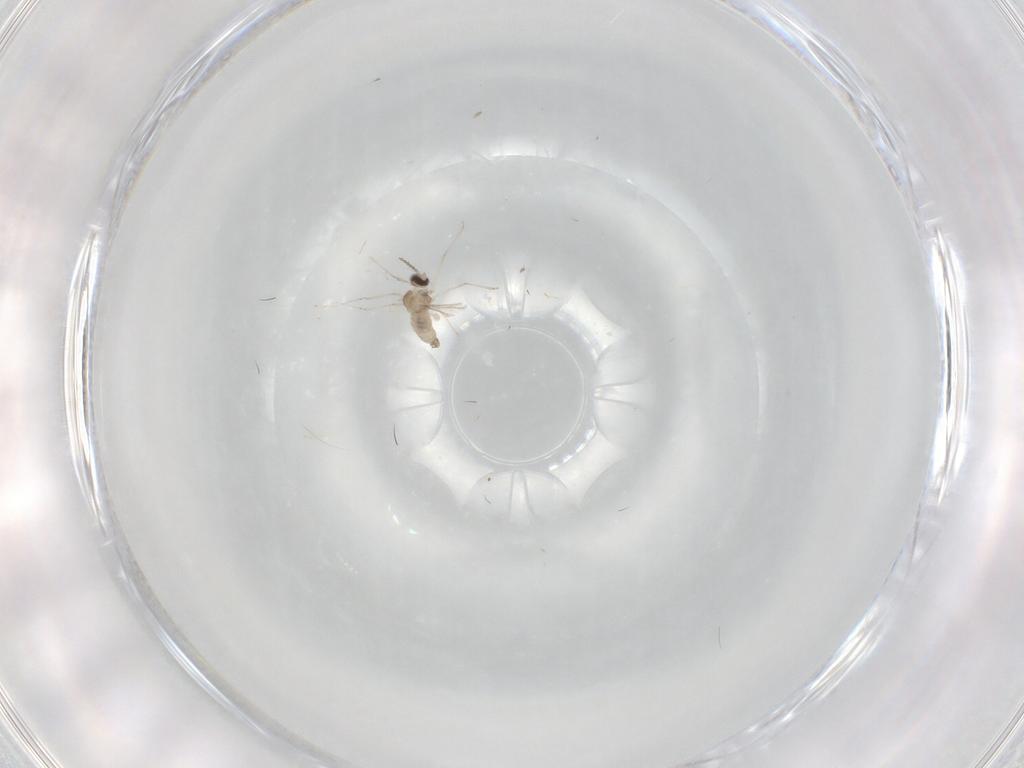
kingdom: Animalia
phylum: Arthropoda
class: Insecta
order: Diptera
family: Cecidomyiidae
